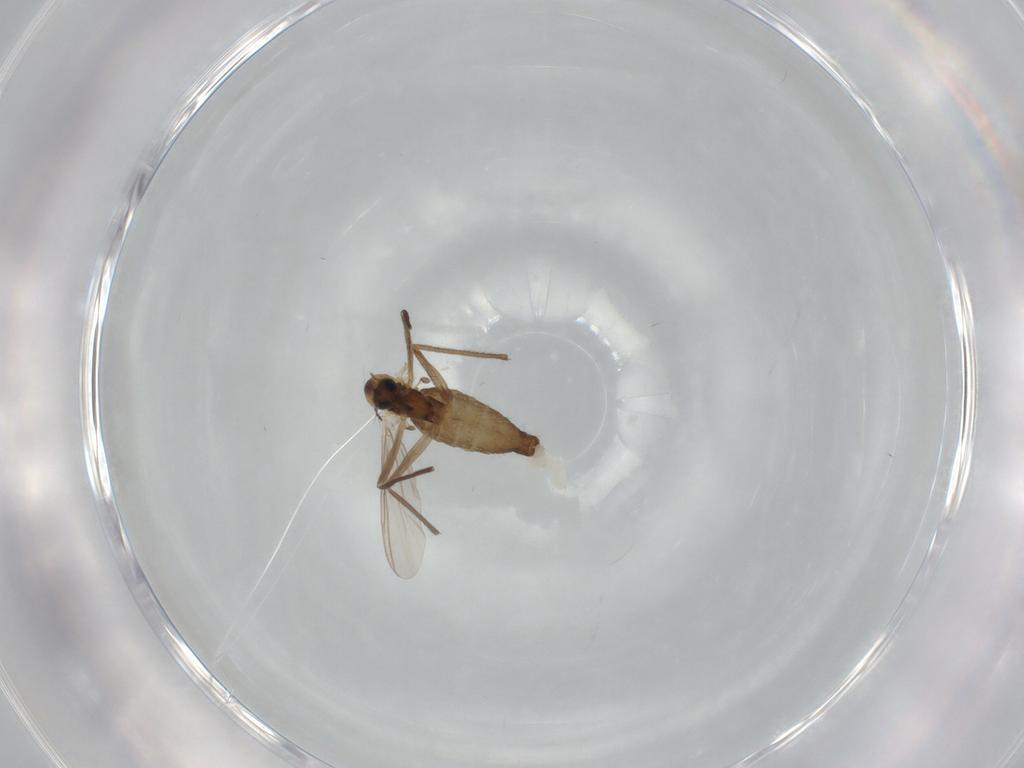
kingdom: Animalia
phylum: Arthropoda
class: Insecta
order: Diptera
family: Chironomidae
